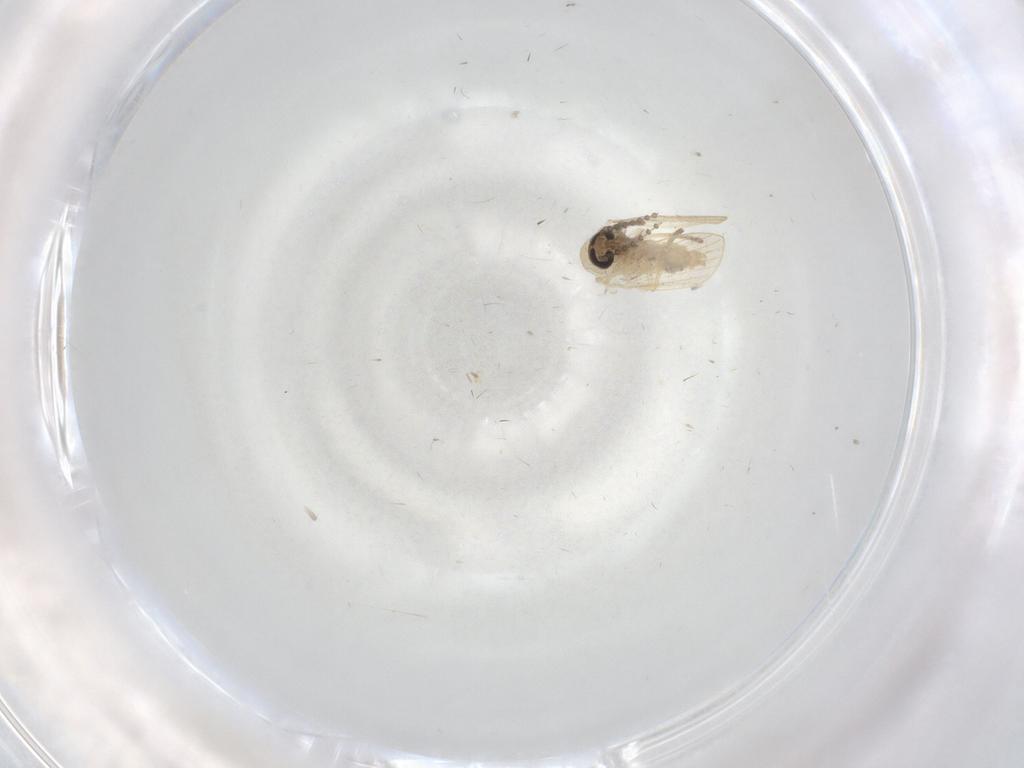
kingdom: Animalia
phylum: Arthropoda
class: Insecta
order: Diptera
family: Psychodidae
